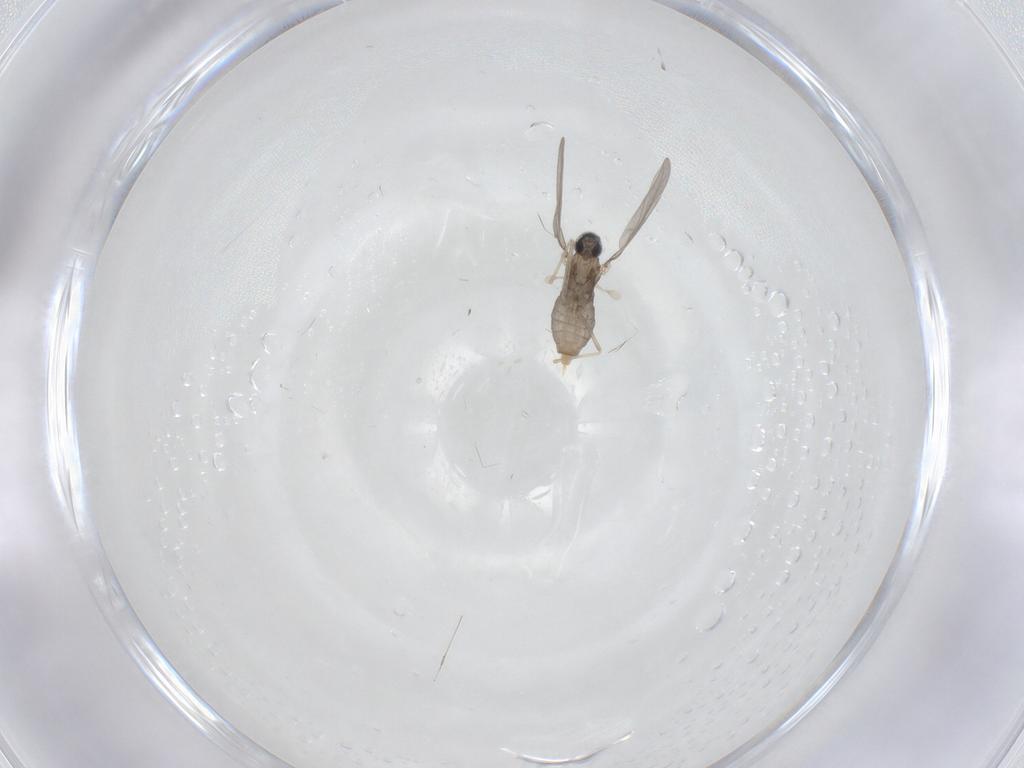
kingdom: Animalia
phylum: Arthropoda
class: Insecta
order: Diptera
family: Cecidomyiidae
